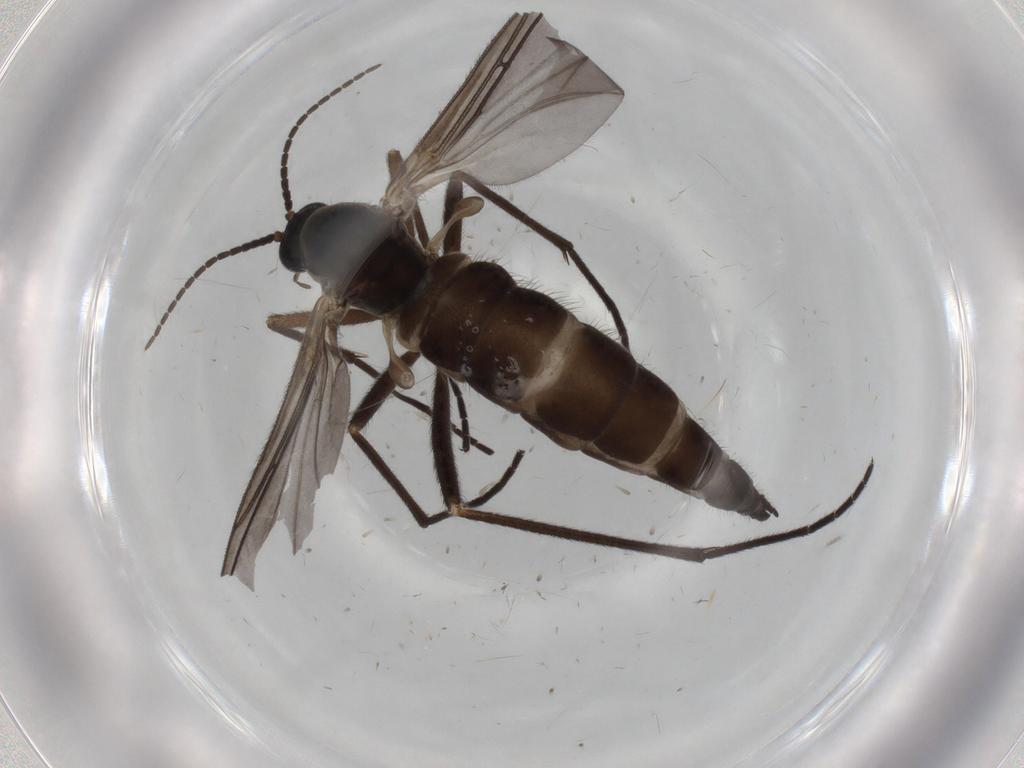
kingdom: Animalia
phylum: Arthropoda
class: Insecta
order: Diptera
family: Sciaridae
